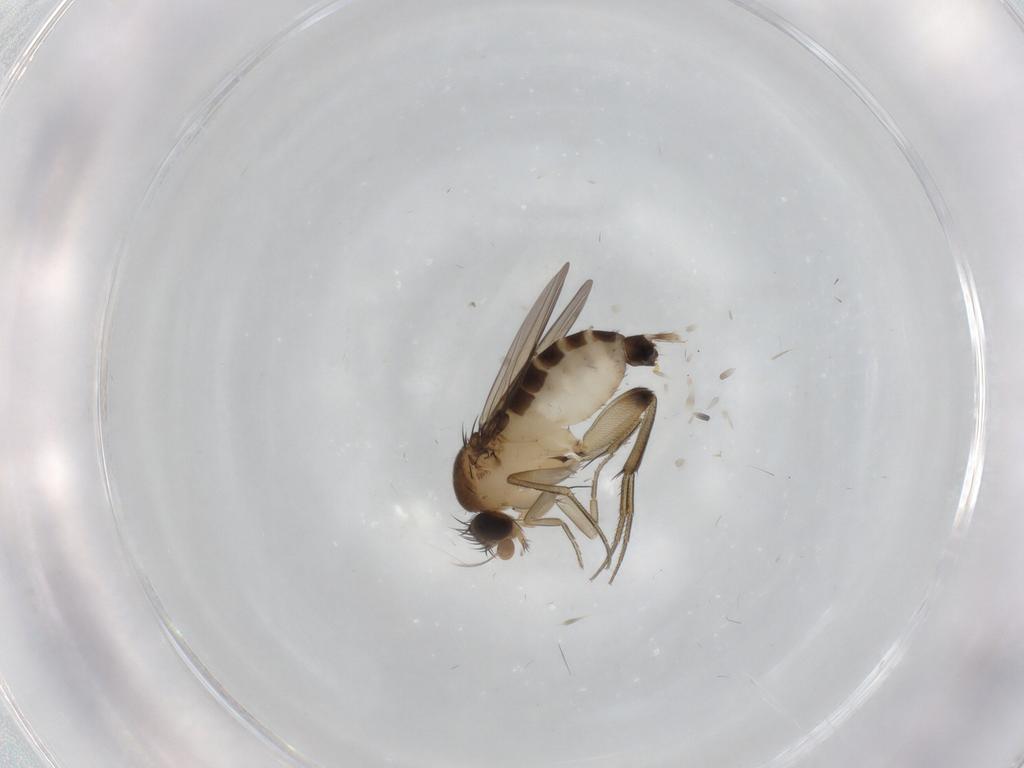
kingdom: Animalia
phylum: Arthropoda
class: Insecta
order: Diptera
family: Phoridae
